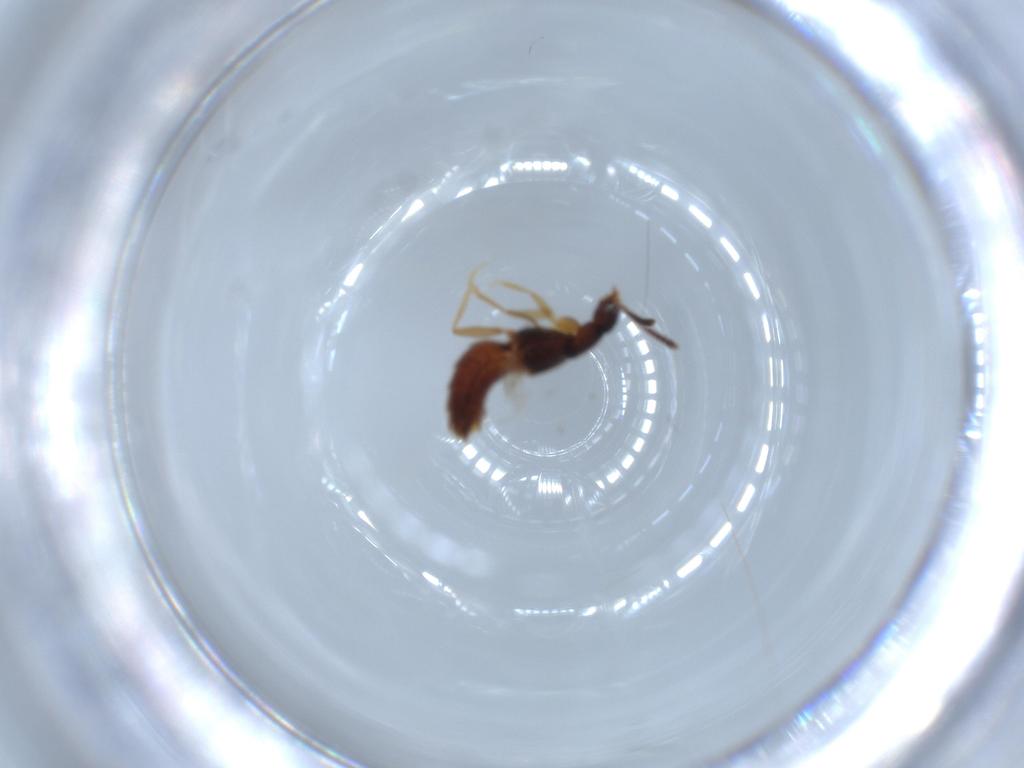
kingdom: Animalia
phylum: Arthropoda
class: Insecta
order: Coleoptera
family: Staphylinidae
